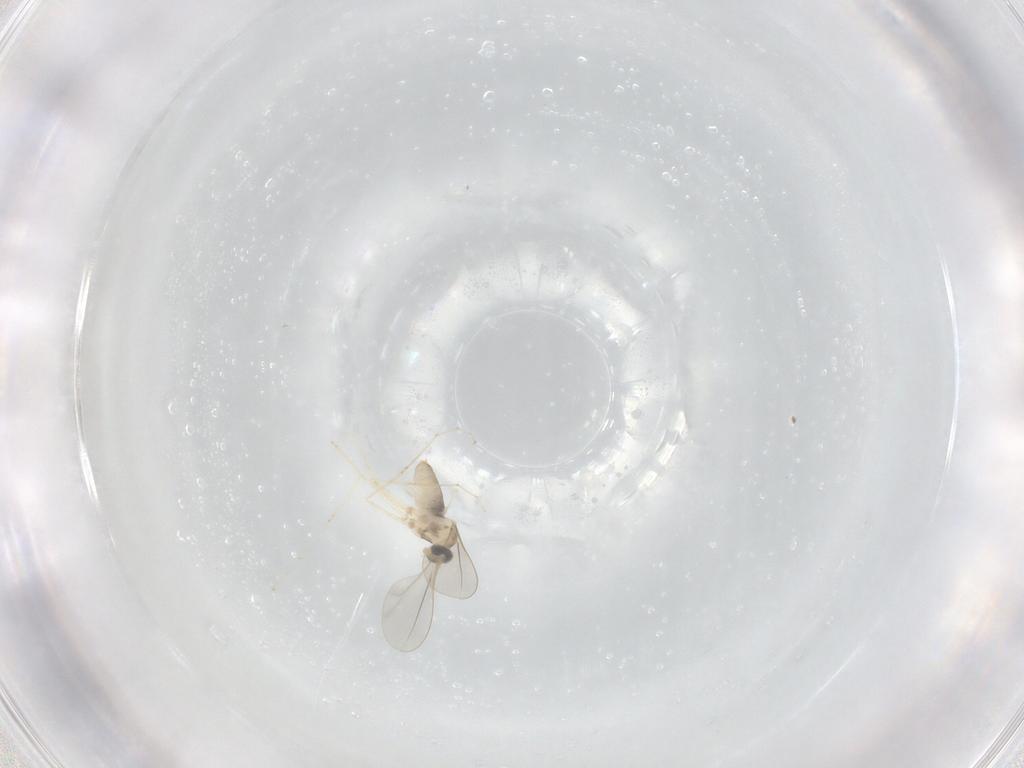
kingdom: Animalia
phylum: Arthropoda
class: Insecta
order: Diptera
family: Cecidomyiidae
